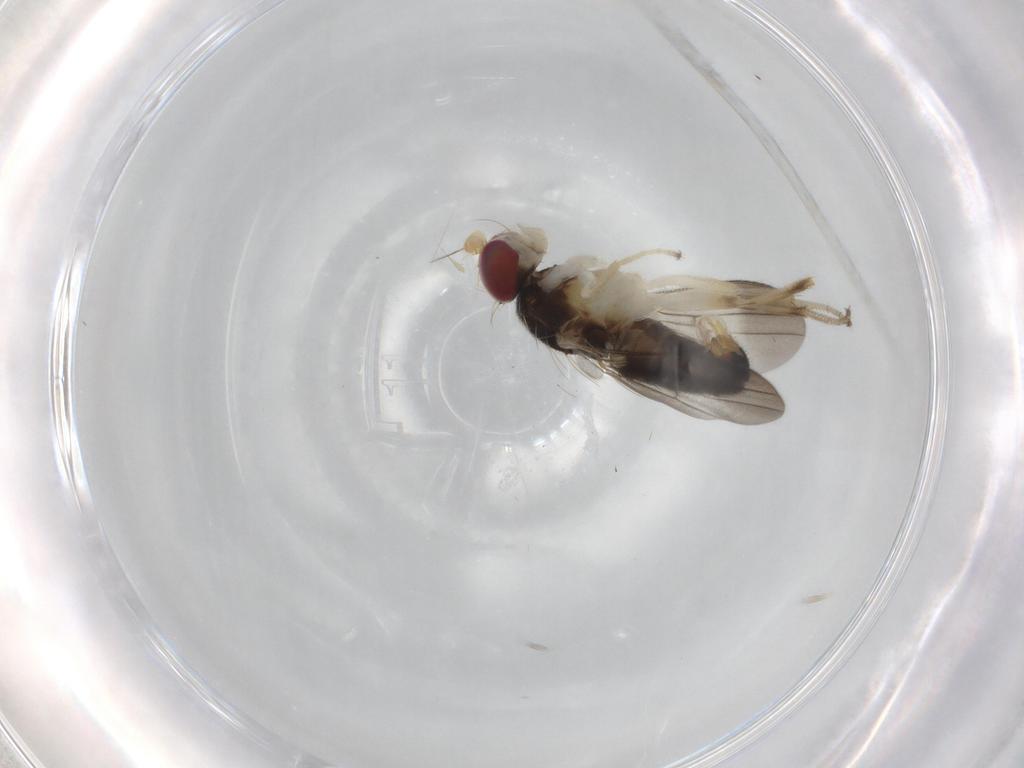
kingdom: Animalia
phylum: Arthropoda
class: Insecta
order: Diptera
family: Clusiidae
